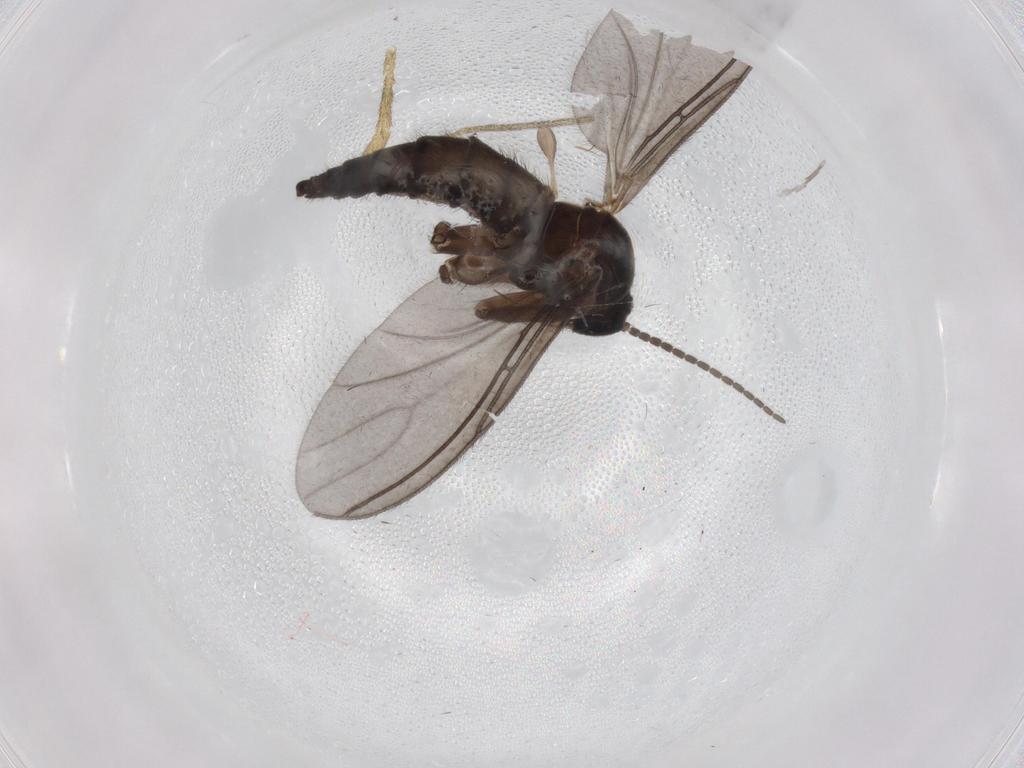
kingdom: Animalia
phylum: Arthropoda
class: Insecta
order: Diptera
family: Sciaridae
